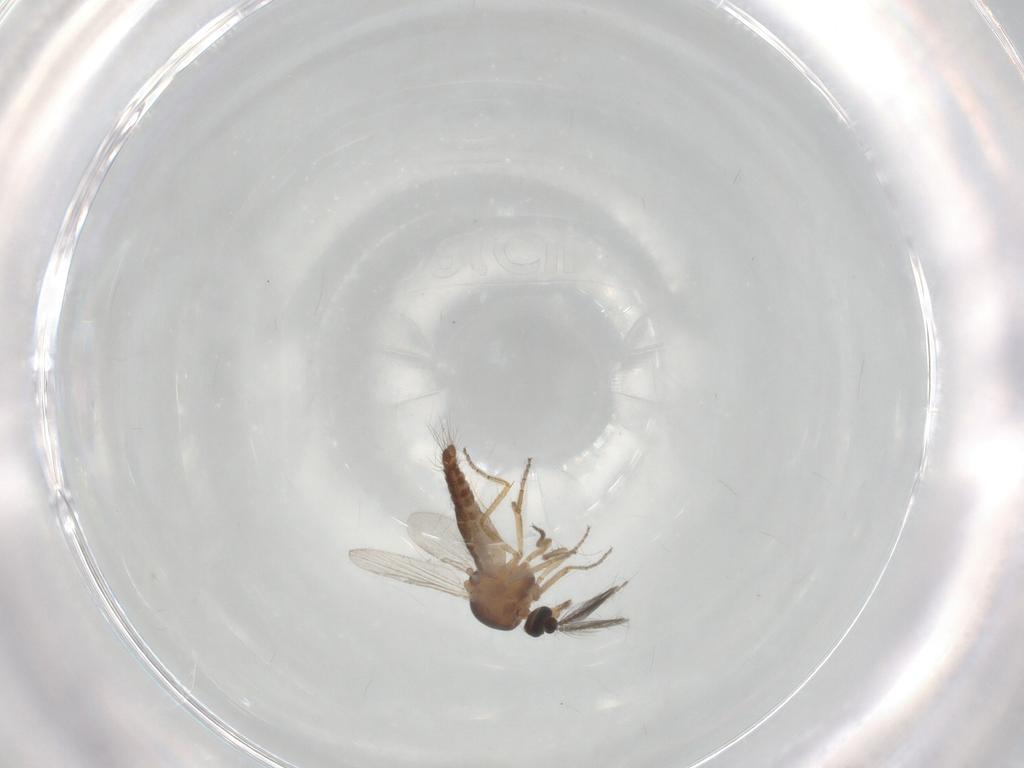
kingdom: Animalia
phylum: Arthropoda
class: Insecta
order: Diptera
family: Ceratopogonidae
